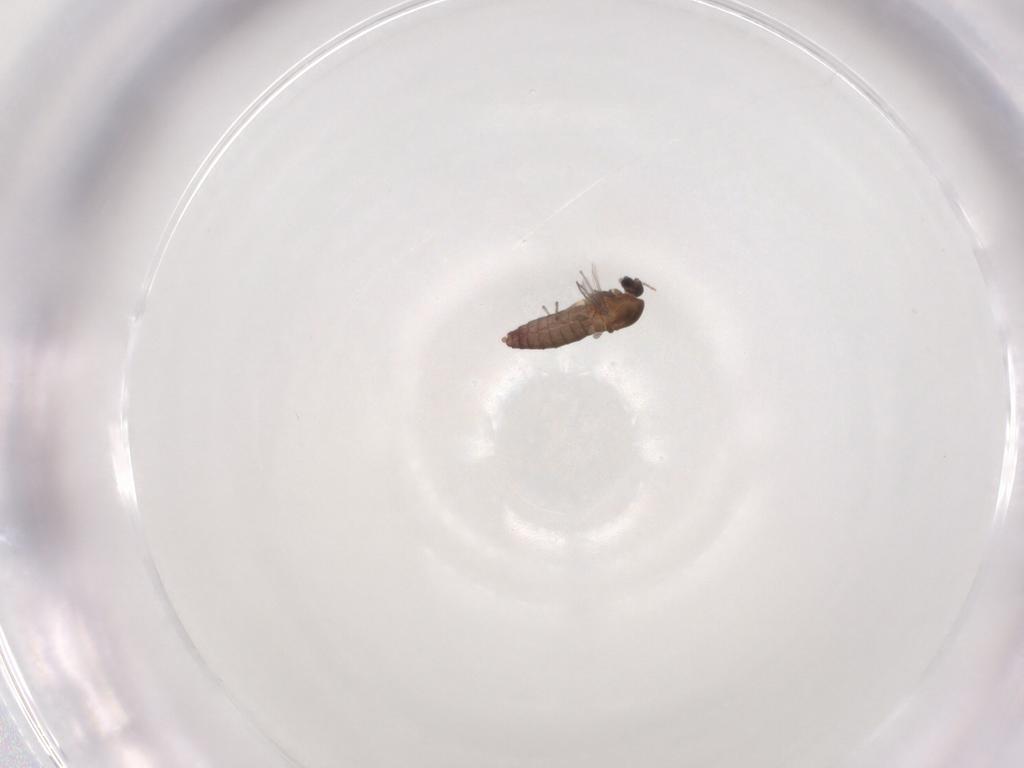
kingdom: Animalia
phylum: Arthropoda
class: Insecta
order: Diptera
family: Chironomidae
